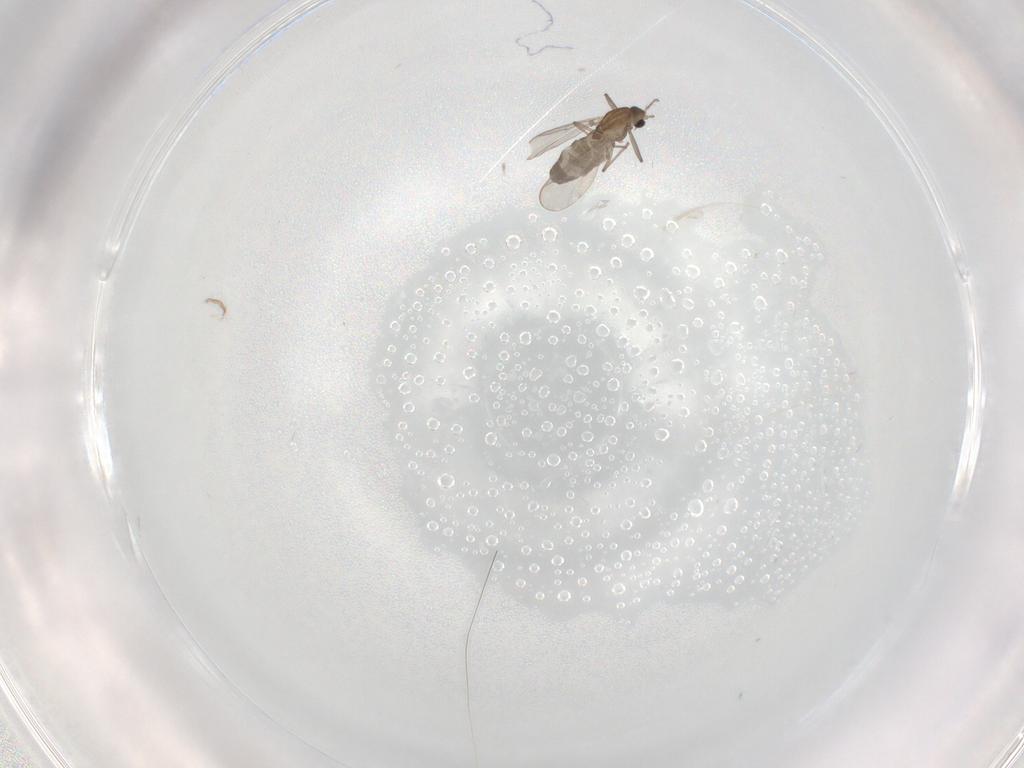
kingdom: Animalia
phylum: Arthropoda
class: Insecta
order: Diptera
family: Chironomidae
